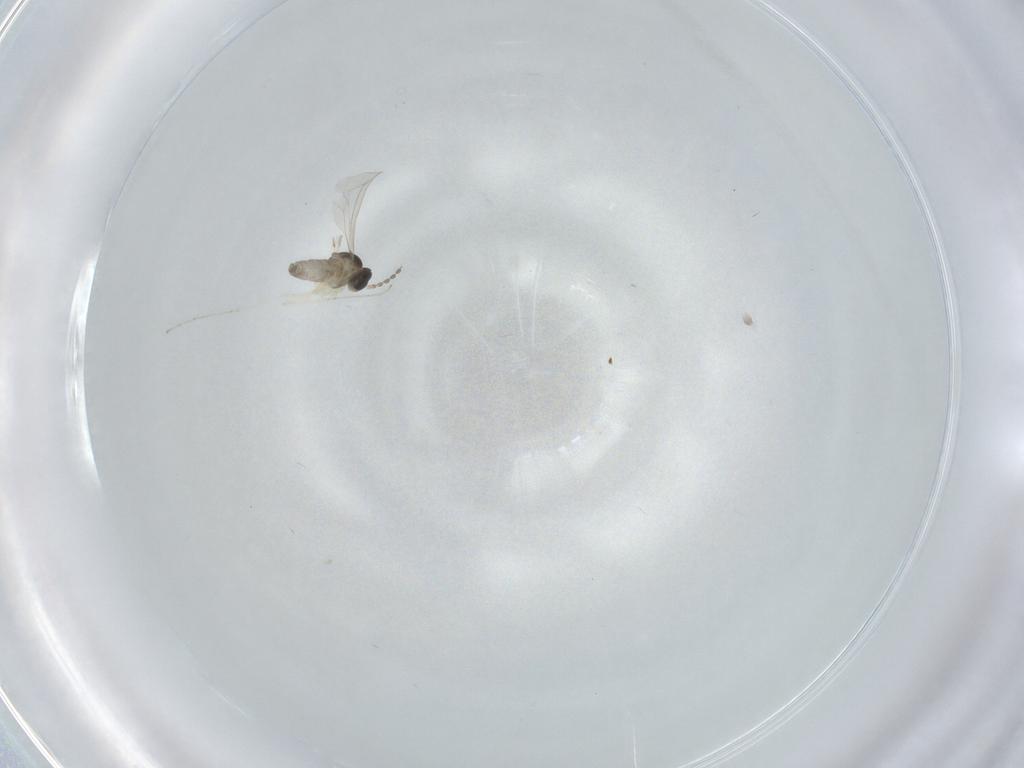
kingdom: Animalia
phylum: Arthropoda
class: Insecta
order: Diptera
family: Cecidomyiidae
